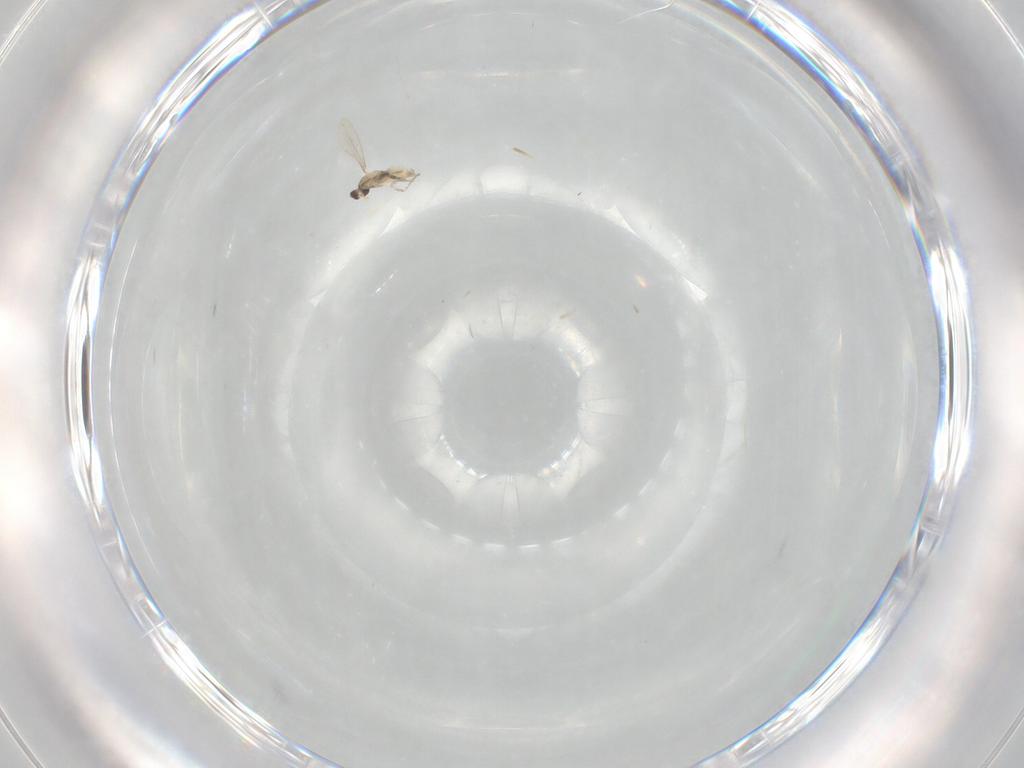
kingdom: Animalia
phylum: Arthropoda
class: Insecta
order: Diptera
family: Cecidomyiidae
